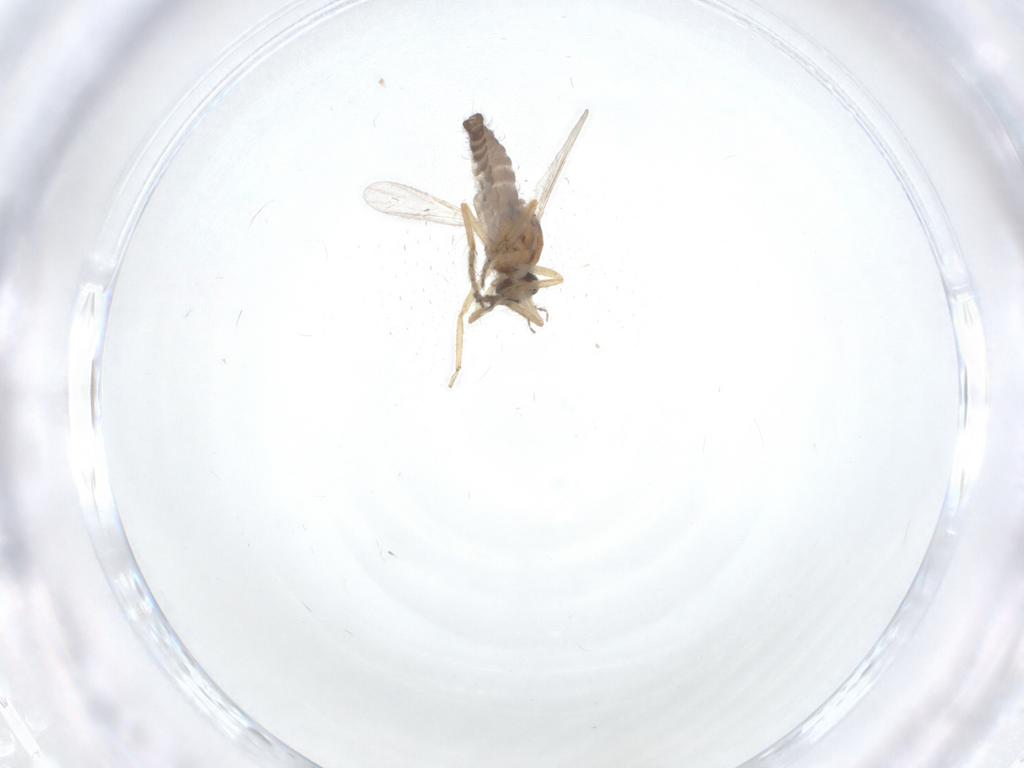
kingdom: Animalia
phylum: Arthropoda
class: Insecta
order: Diptera
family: Ceratopogonidae
